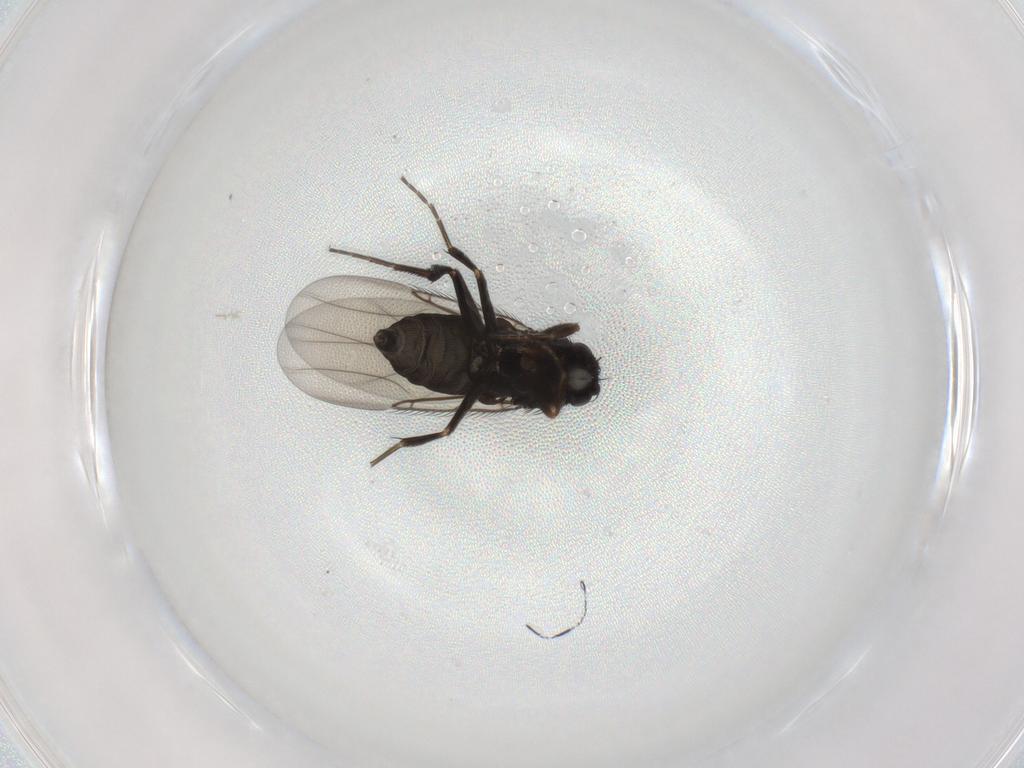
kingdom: Animalia
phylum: Arthropoda
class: Insecta
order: Diptera
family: Phoridae
